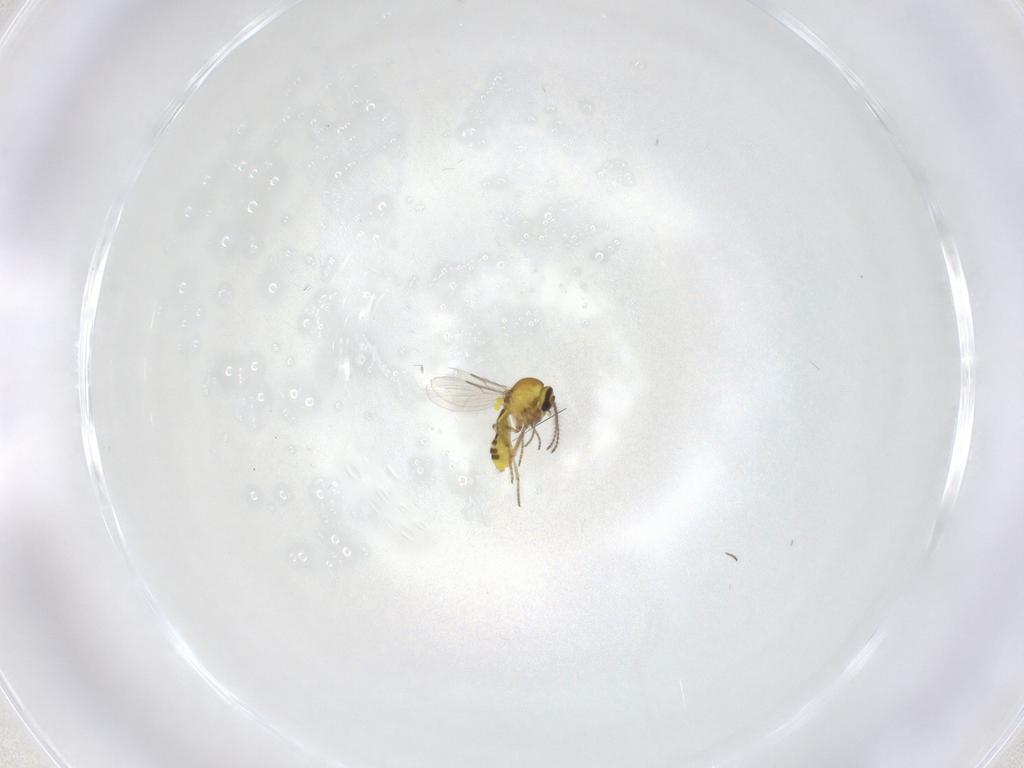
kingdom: Animalia
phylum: Arthropoda
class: Insecta
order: Diptera
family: Ceratopogonidae
